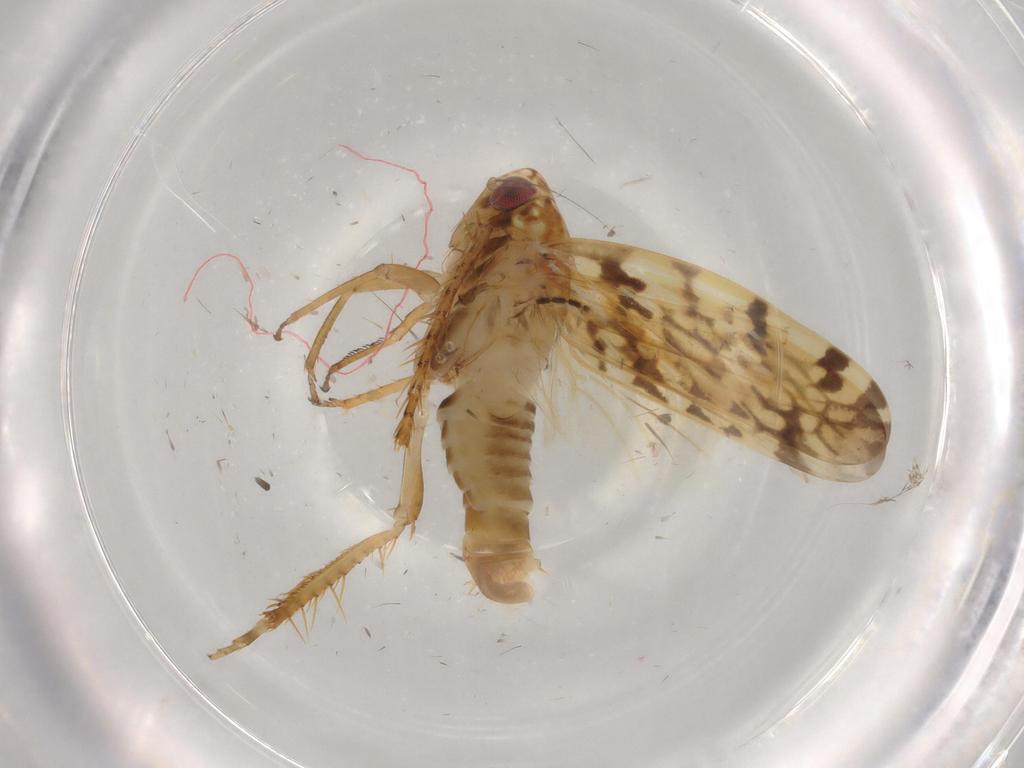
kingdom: Animalia
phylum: Arthropoda
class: Insecta
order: Hemiptera
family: Cicadellidae
